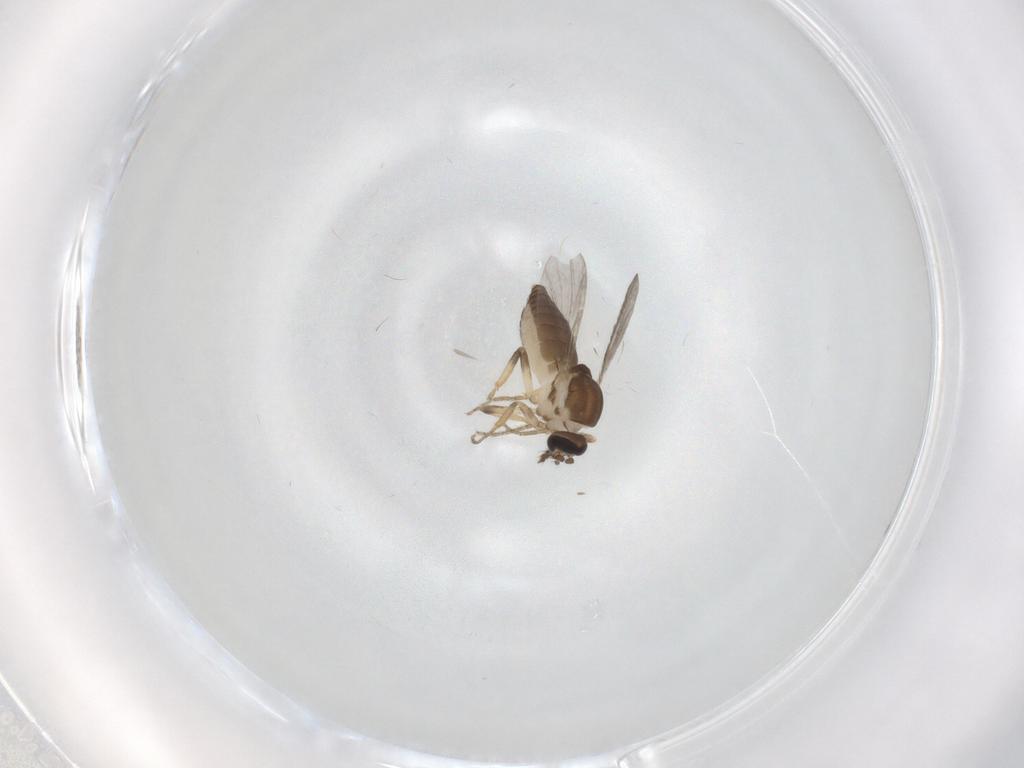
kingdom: Animalia
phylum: Arthropoda
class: Insecta
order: Diptera
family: Ceratopogonidae
